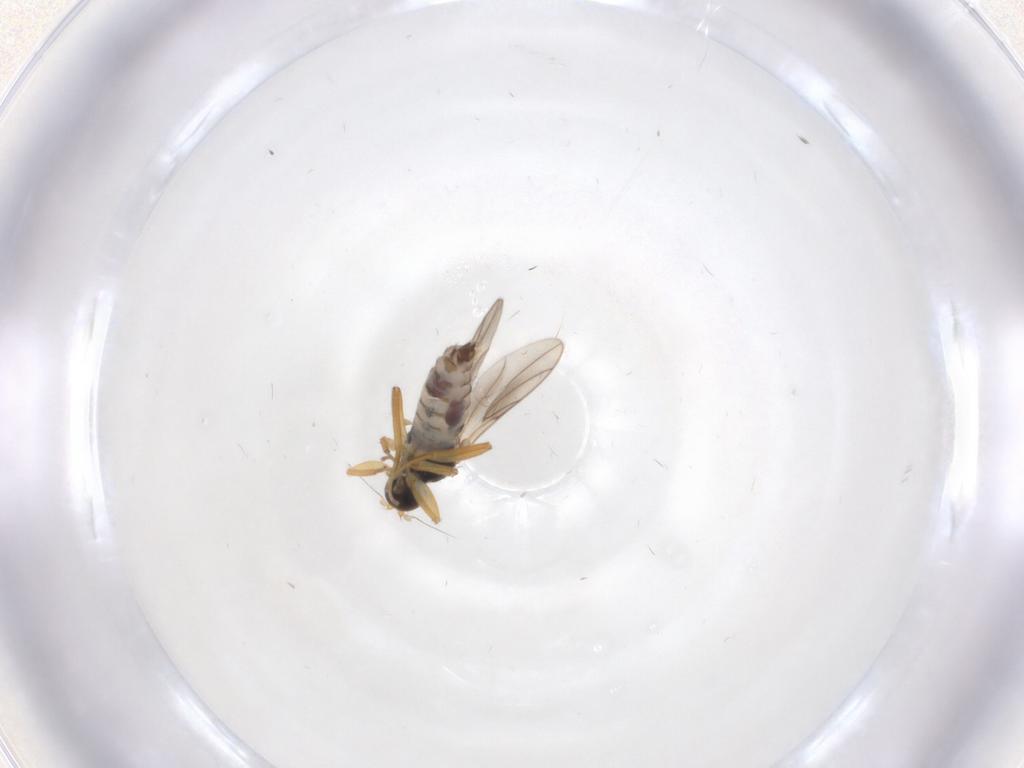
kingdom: Animalia
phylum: Arthropoda
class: Insecta
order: Diptera
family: Hybotidae
